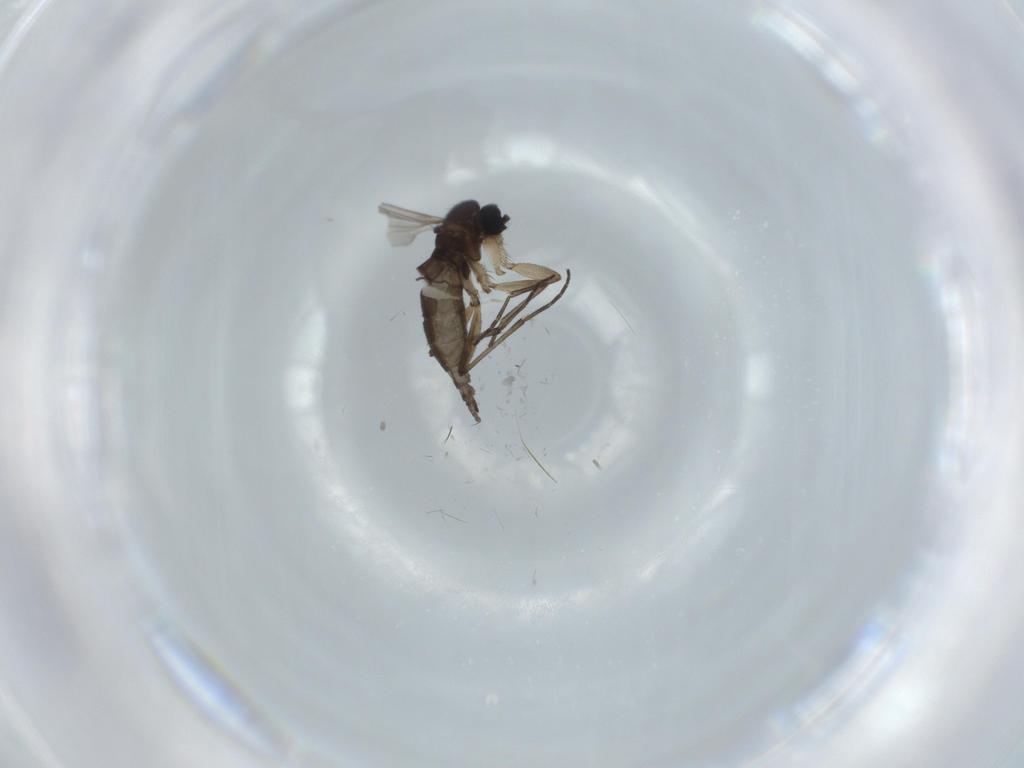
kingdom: Animalia
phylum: Arthropoda
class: Insecta
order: Diptera
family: Sciaridae
